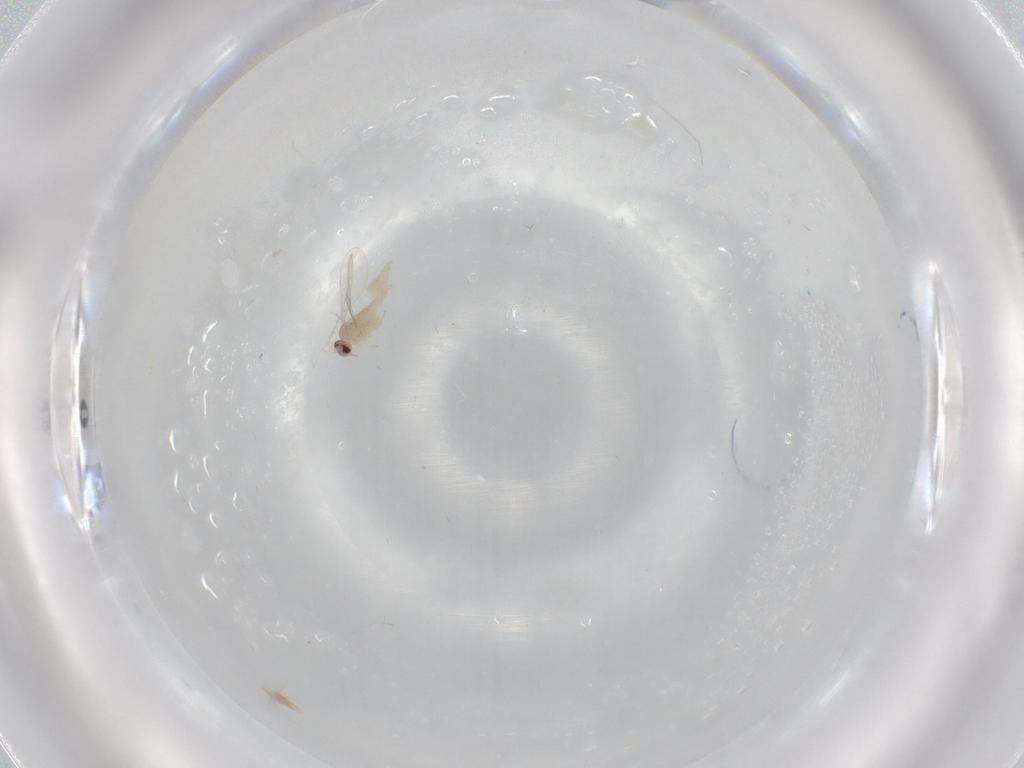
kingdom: Animalia
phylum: Arthropoda
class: Insecta
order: Diptera
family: Cecidomyiidae
